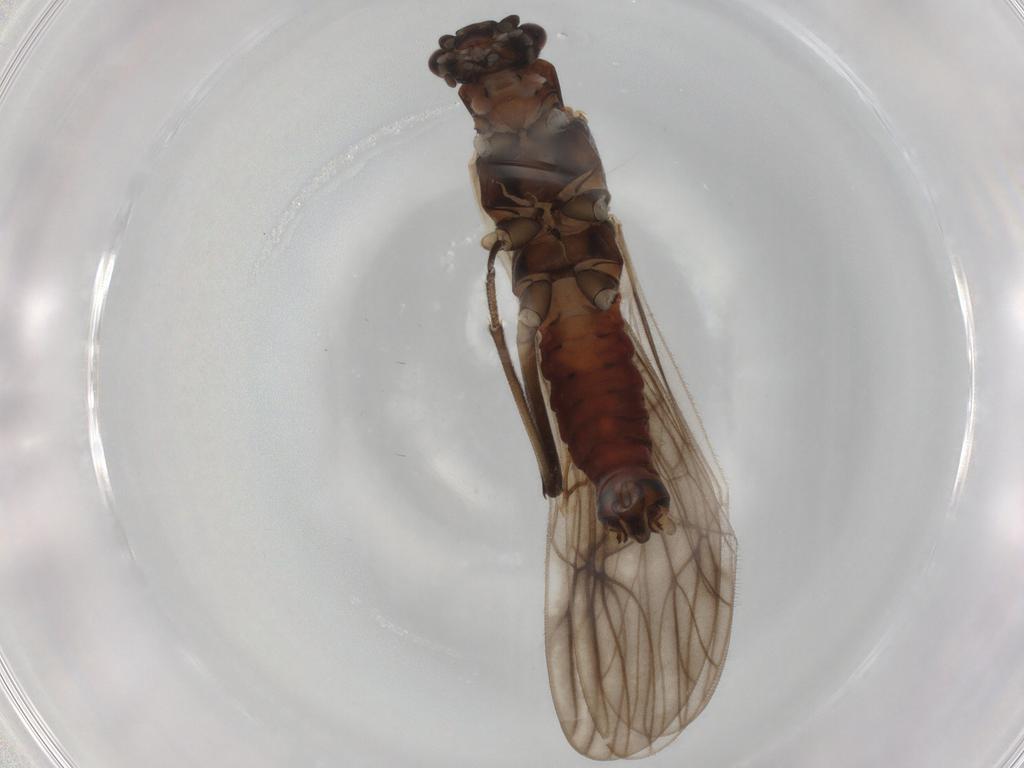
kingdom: Animalia
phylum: Arthropoda
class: Insecta
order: Plecoptera
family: Nemouridae
